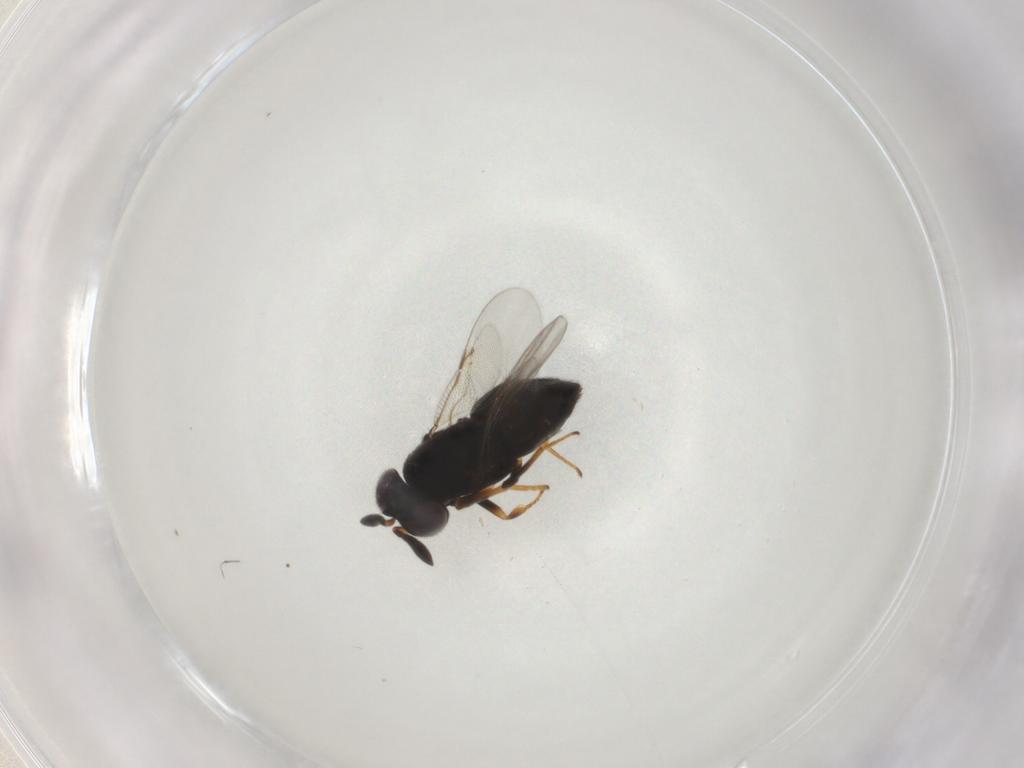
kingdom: Animalia
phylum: Arthropoda
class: Insecta
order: Hymenoptera
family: Encyrtidae
